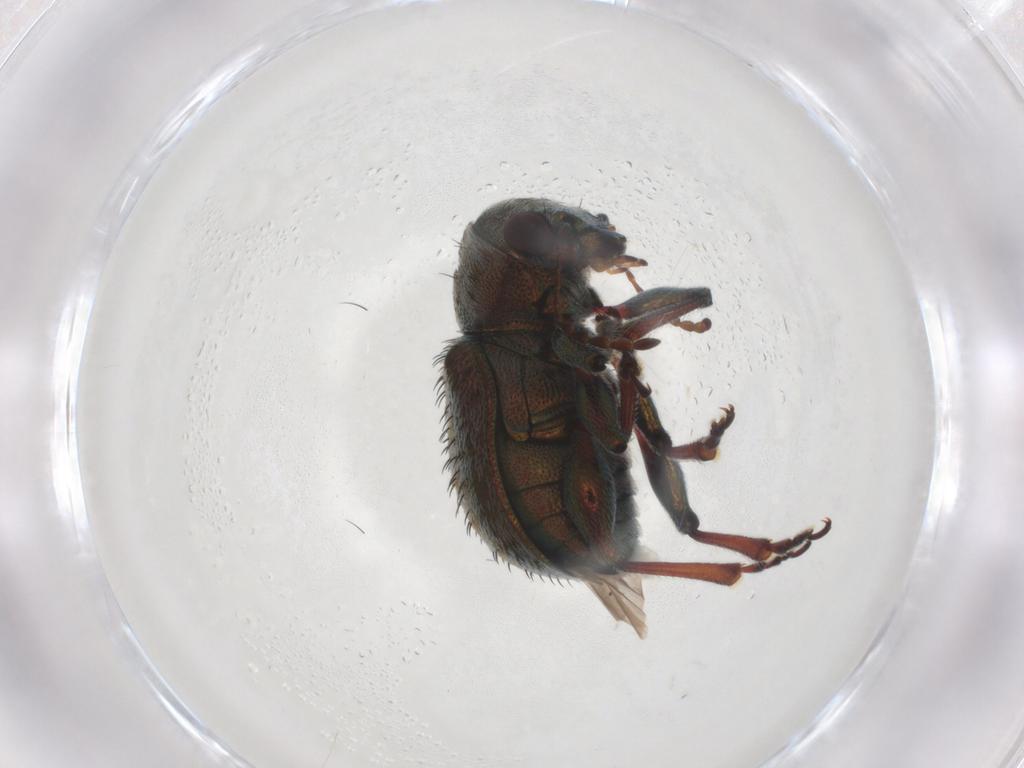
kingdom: Animalia
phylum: Arthropoda
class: Insecta
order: Coleoptera
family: Chrysomelidae
